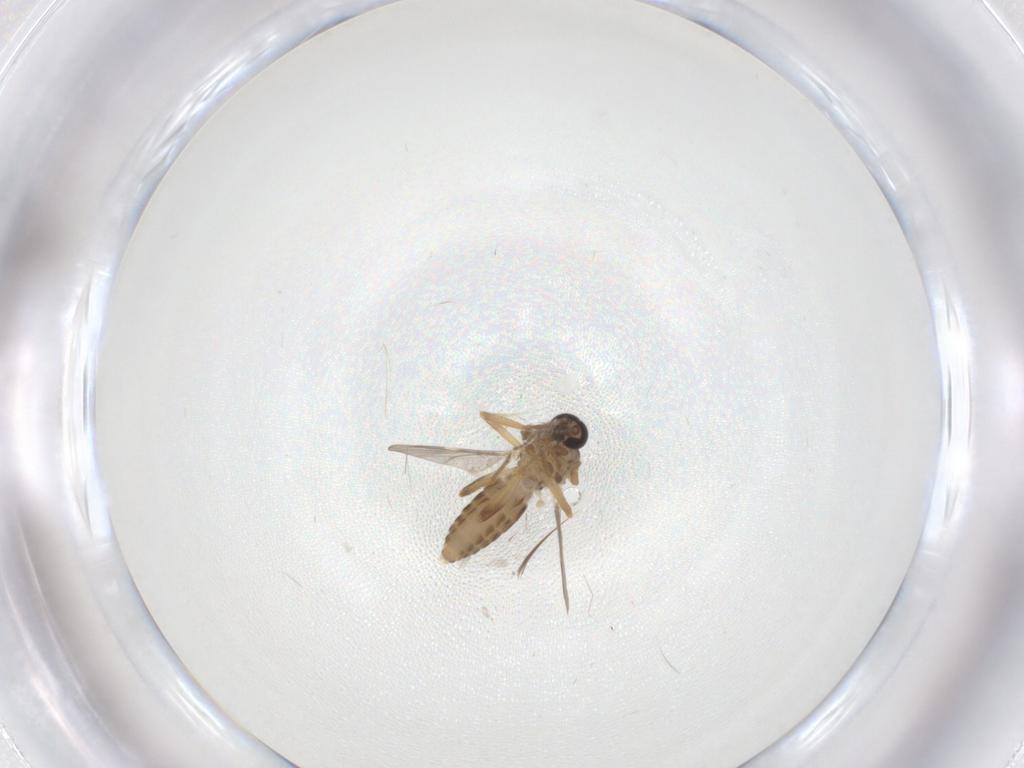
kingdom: Animalia
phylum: Arthropoda
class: Insecta
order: Diptera
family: Ceratopogonidae
